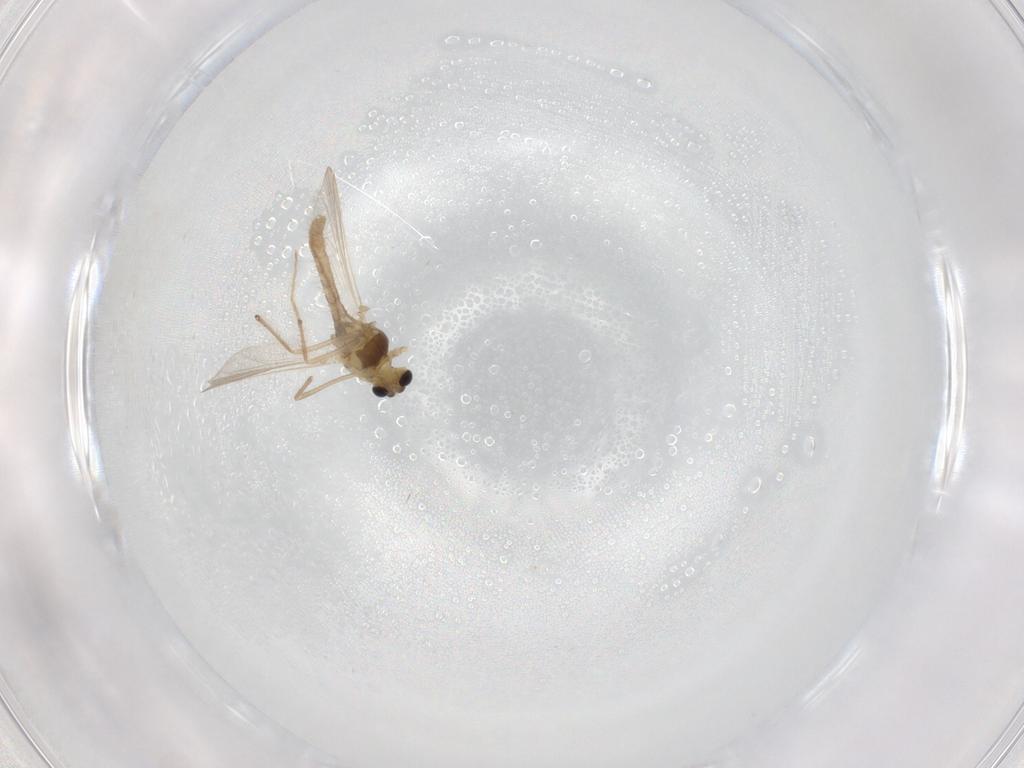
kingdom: Animalia
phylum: Arthropoda
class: Insecta
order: Diptera
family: Chironomidae
